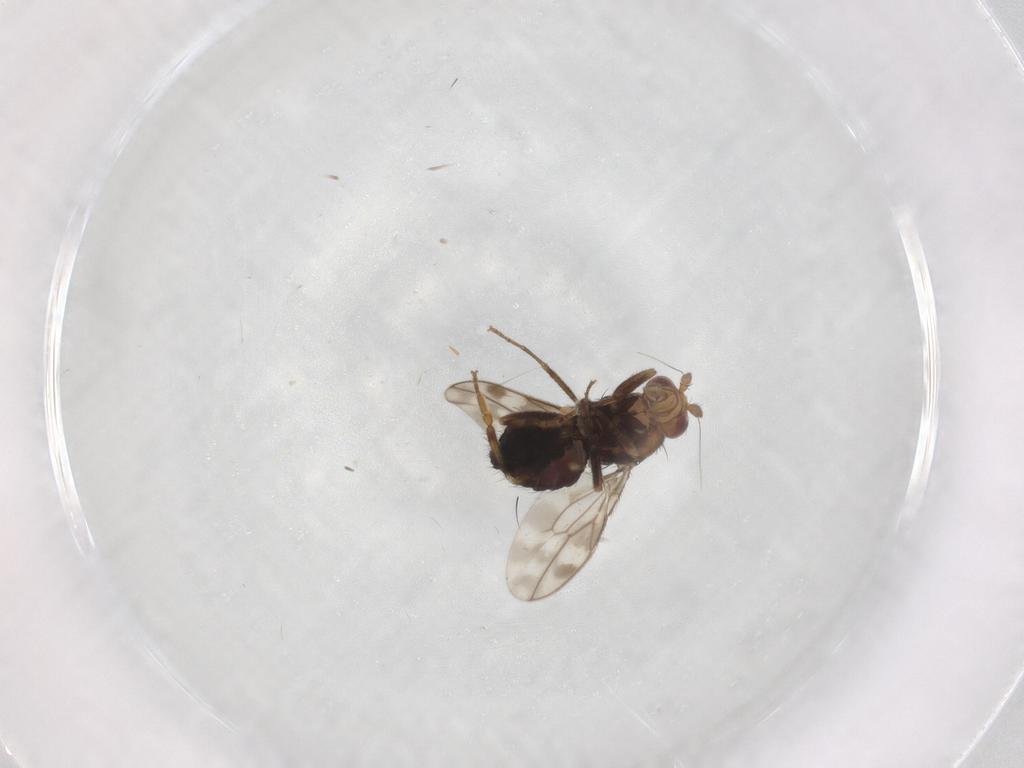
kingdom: Animalia
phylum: Arthropoda
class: Insecta
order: Diptera
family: Sphaeroceridae
